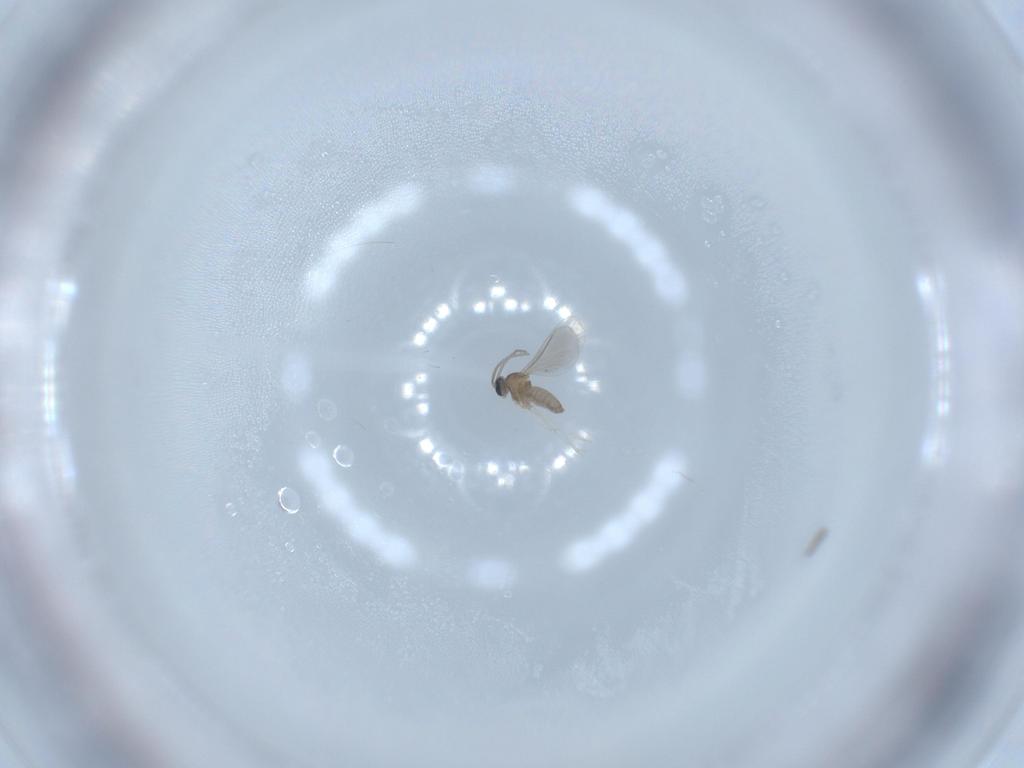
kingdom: Animalia
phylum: Arthropoda
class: Insecta
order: Diptera
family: Cecidomyiidae
